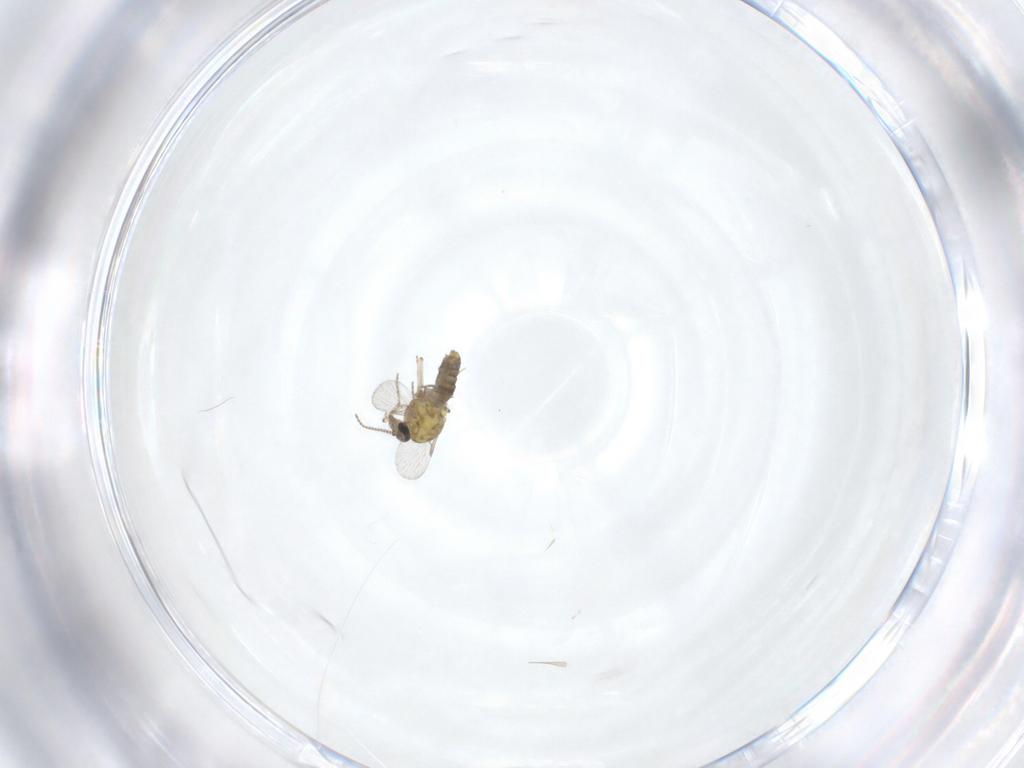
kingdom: Animalia
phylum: Arthropoda
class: Insecta
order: Diptera
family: Chironomidae
